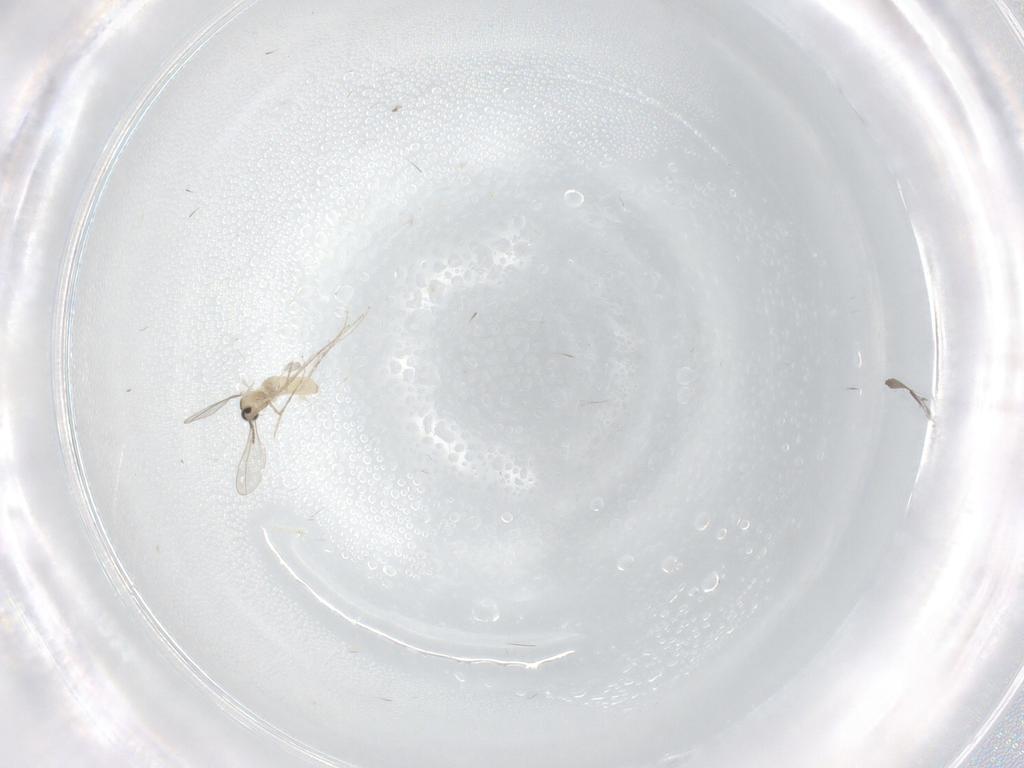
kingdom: Animalia
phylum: Arthropoda
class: Insecta
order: Diptera
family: Cecidomyiidae
